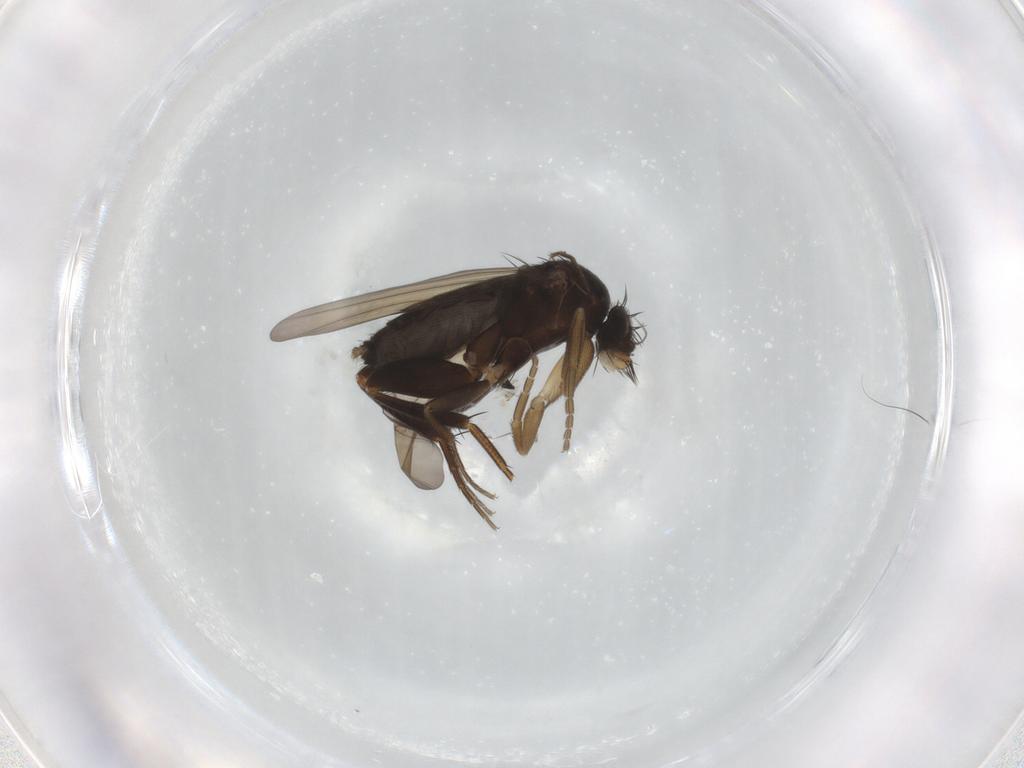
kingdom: Animalia
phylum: Arthropoda
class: Insecta
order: Diptera
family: Phoridae
